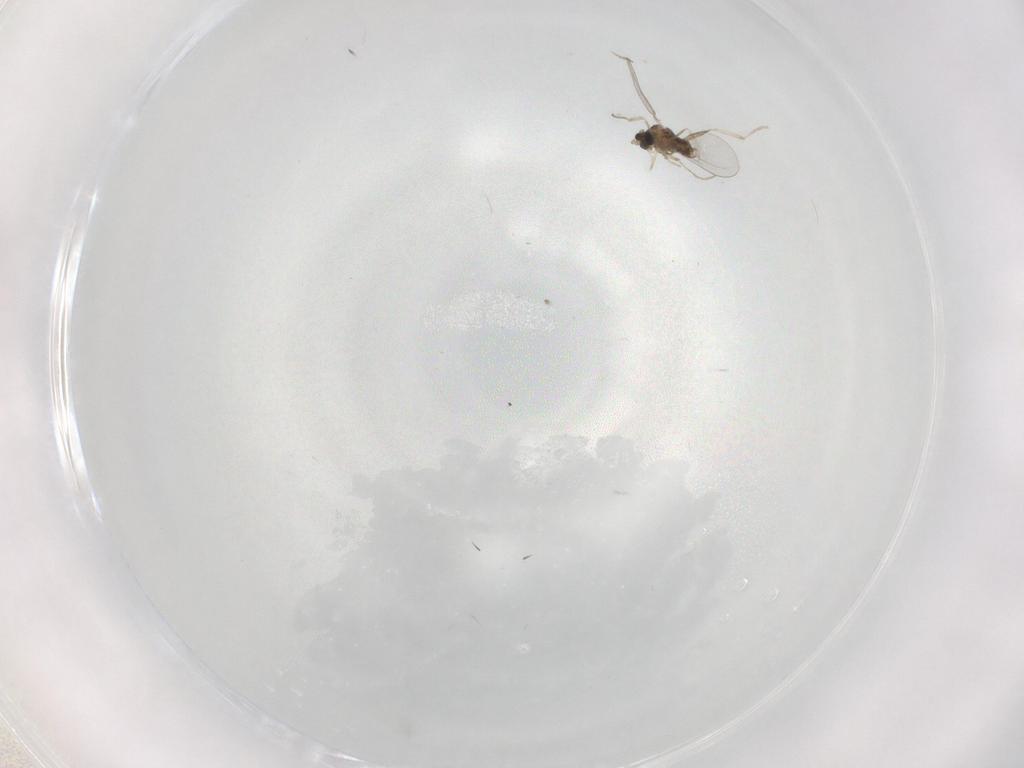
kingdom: Animalia
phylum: Arthropoda
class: Insecta
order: Diptera
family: Cecidomyiidae
